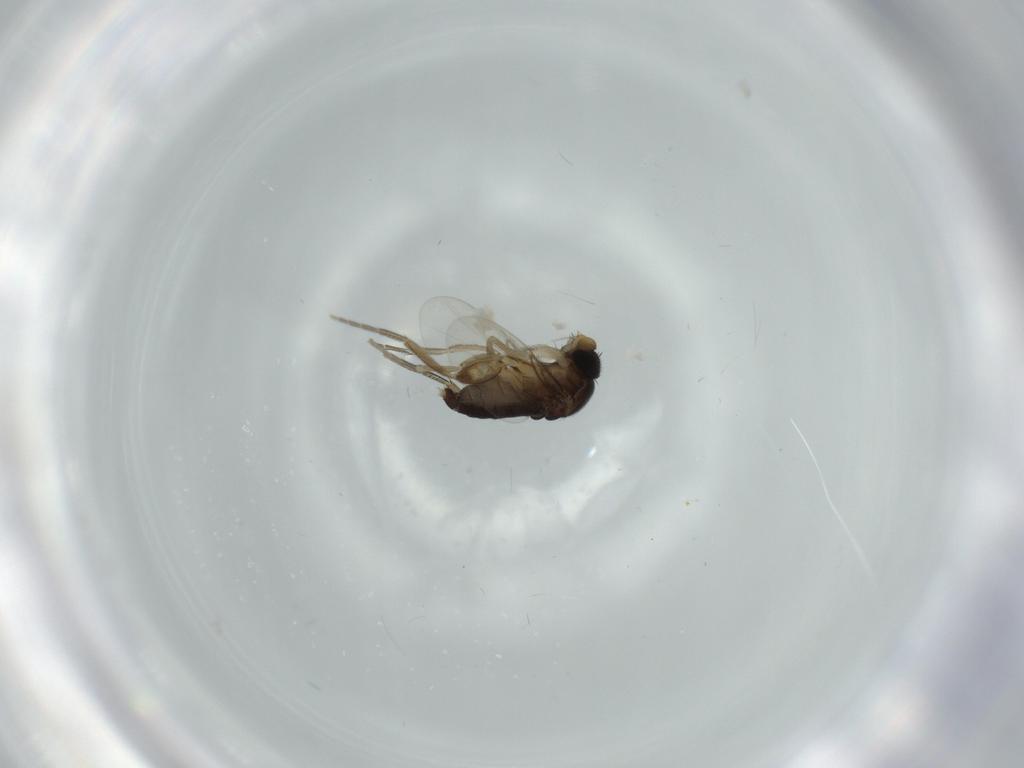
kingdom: Animalia
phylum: Arthropoda
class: Insecta
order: Diptera
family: Phoridae
